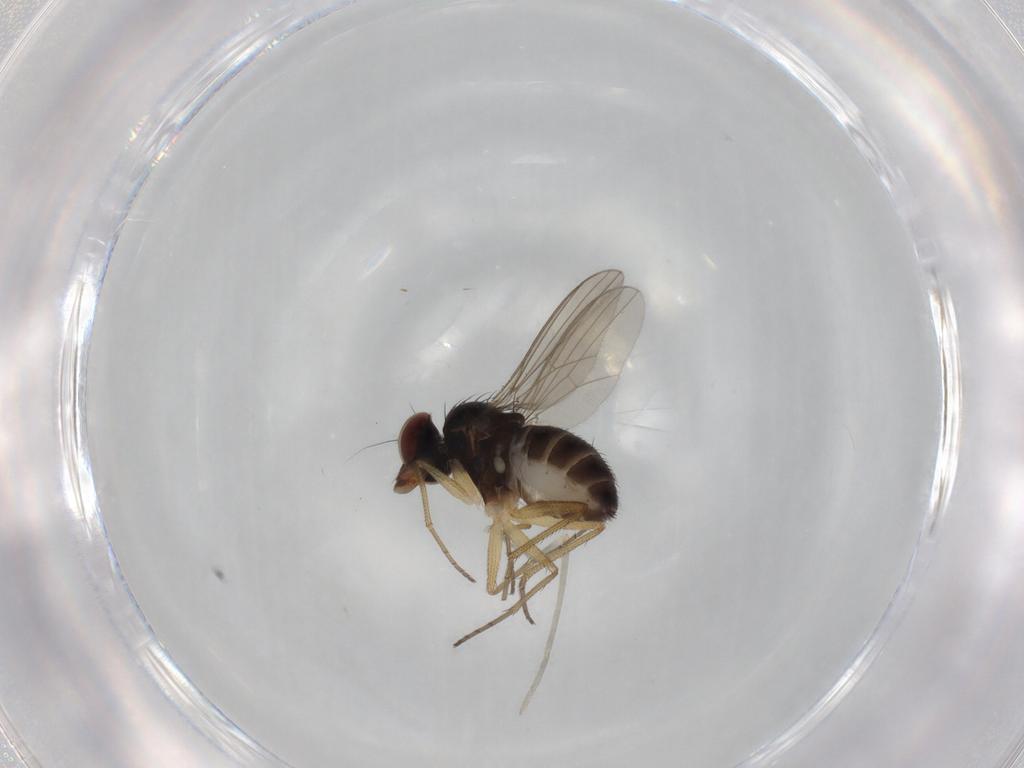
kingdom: Animalia
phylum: Arthropoda
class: Insecta
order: Diptera
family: Dolichopodidae
